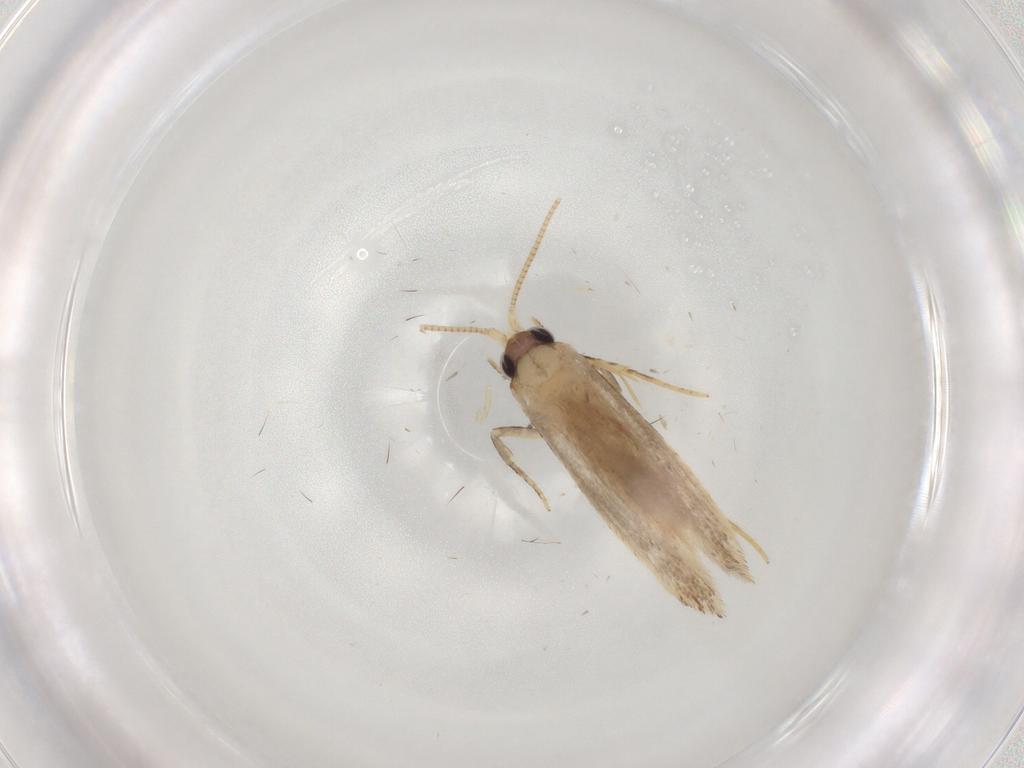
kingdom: Animalia
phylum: Arthropoda
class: Insecta
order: Lepidoptera
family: Nepticulidae
